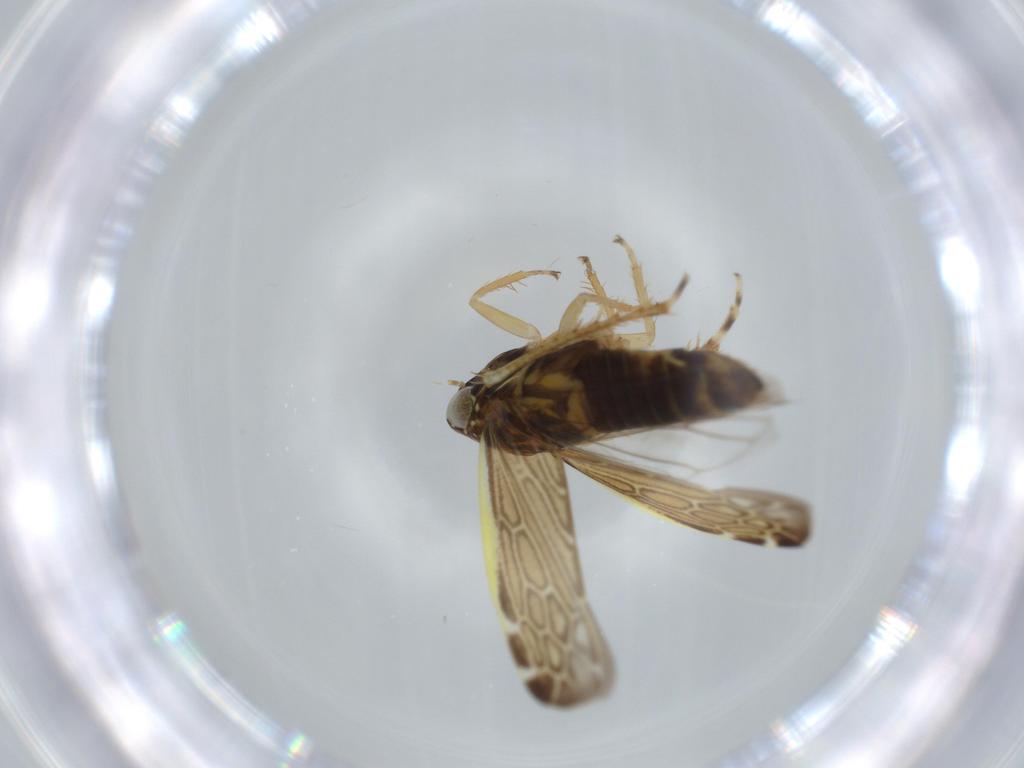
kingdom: Animalia
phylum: Arthropoda
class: Insecta
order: Hemiptera
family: Cicadellidae
